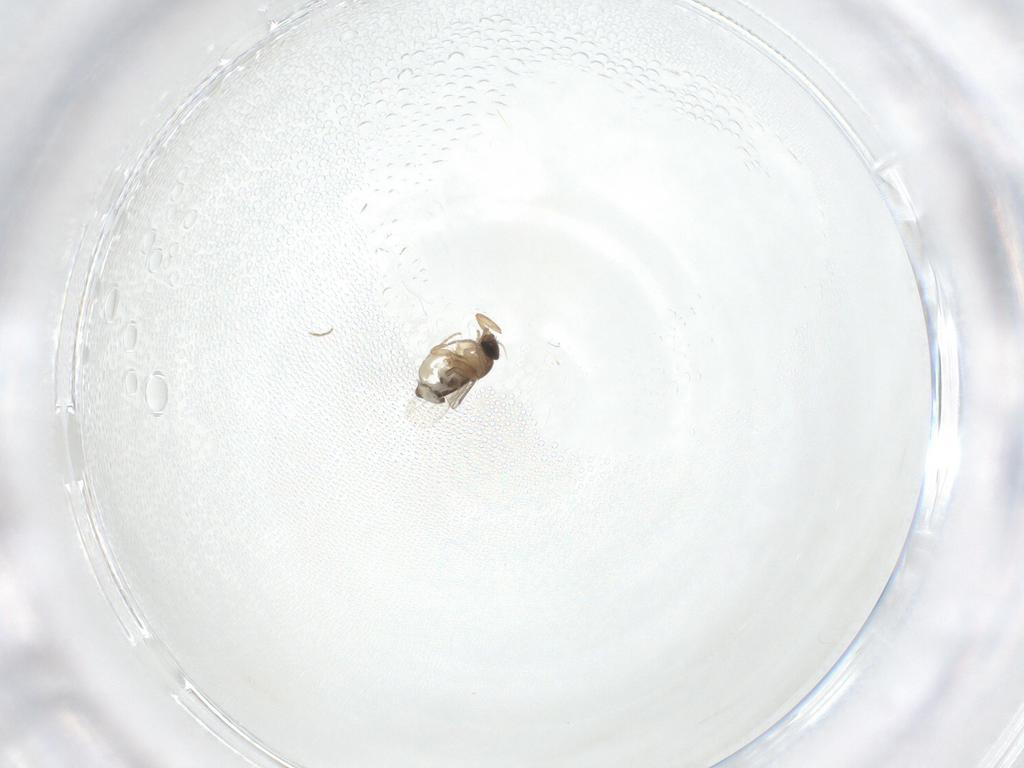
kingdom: Animalia
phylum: Arthropoda
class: Insecta
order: Diptera
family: Phoridae
